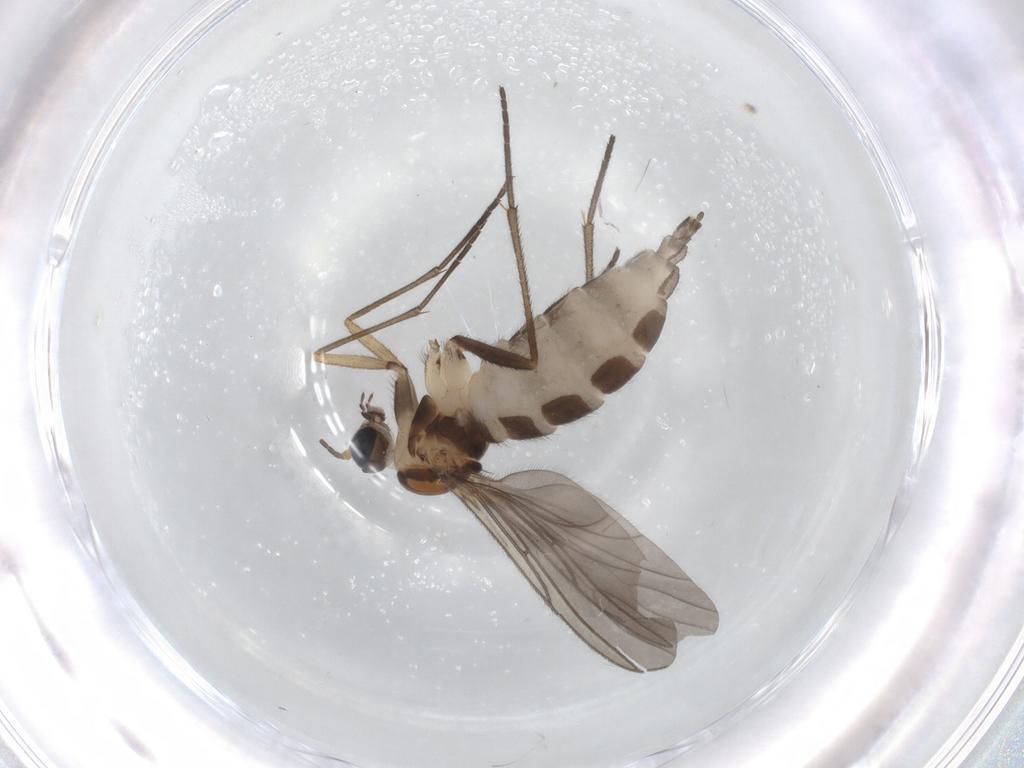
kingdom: Animalia
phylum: Arthropoda
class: Insecta
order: Diptera
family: Sciaridae
